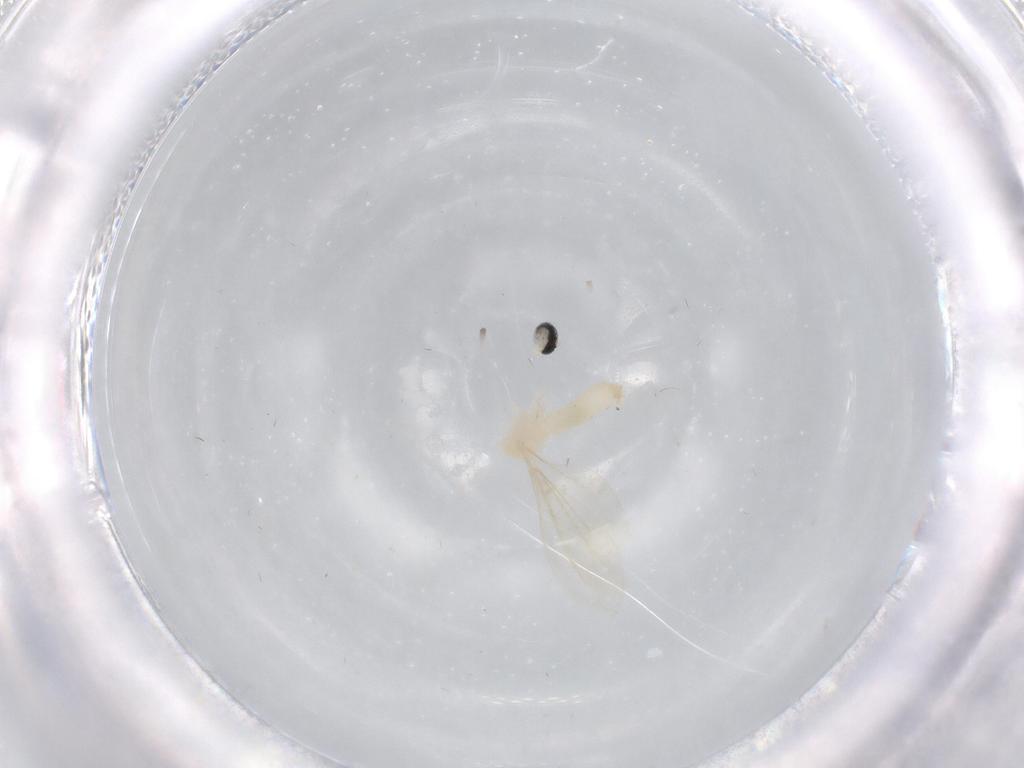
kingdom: Animalia
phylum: Arthropoda
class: Insecta
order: Diptera
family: Cecidomyiidae
